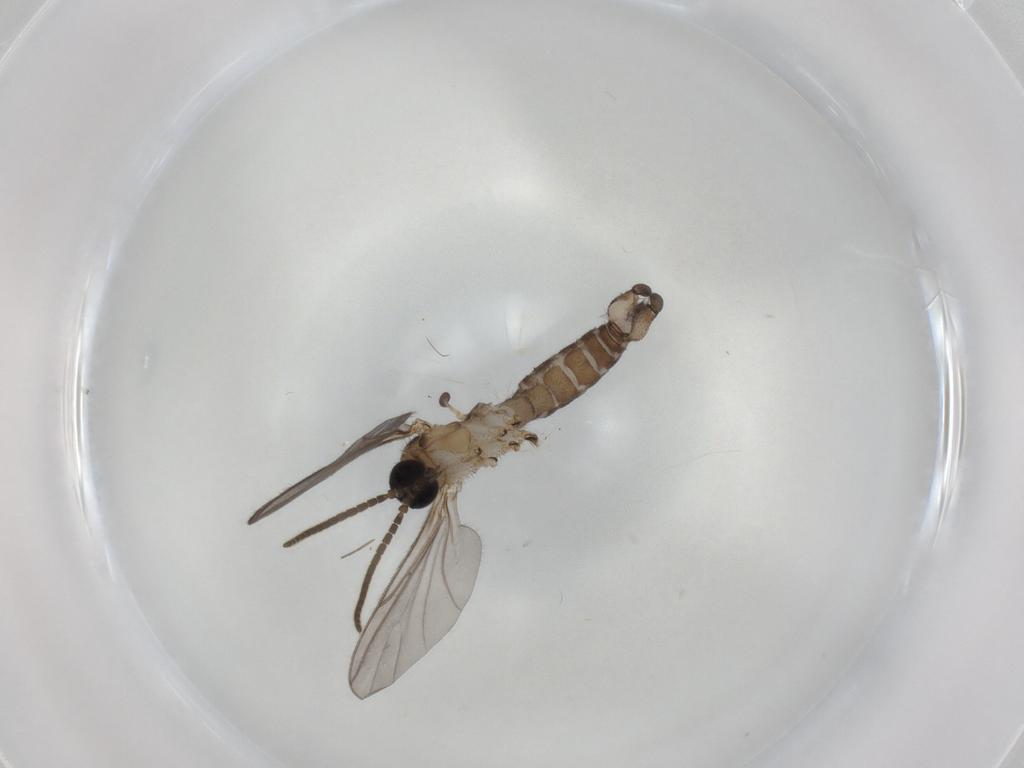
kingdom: Animalia
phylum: Arthropoda
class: Insecta
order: Diptera
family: Sciaridae
